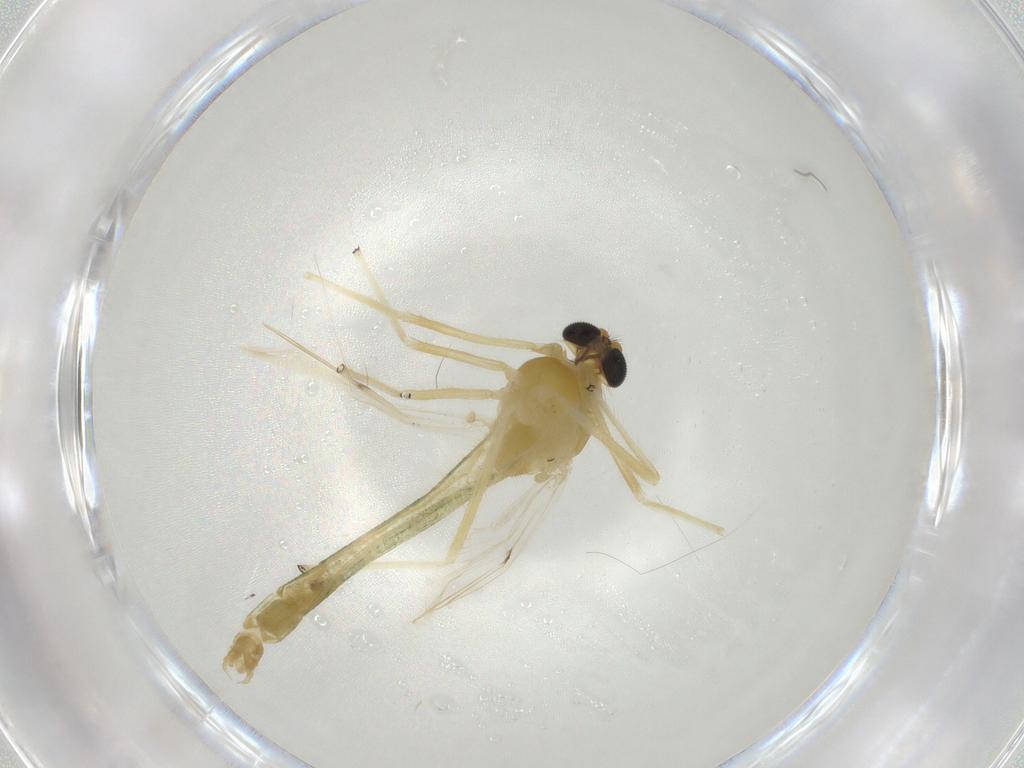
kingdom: Animalia
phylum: Arthropoda
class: Insecta
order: Diptera
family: Chironomidae
